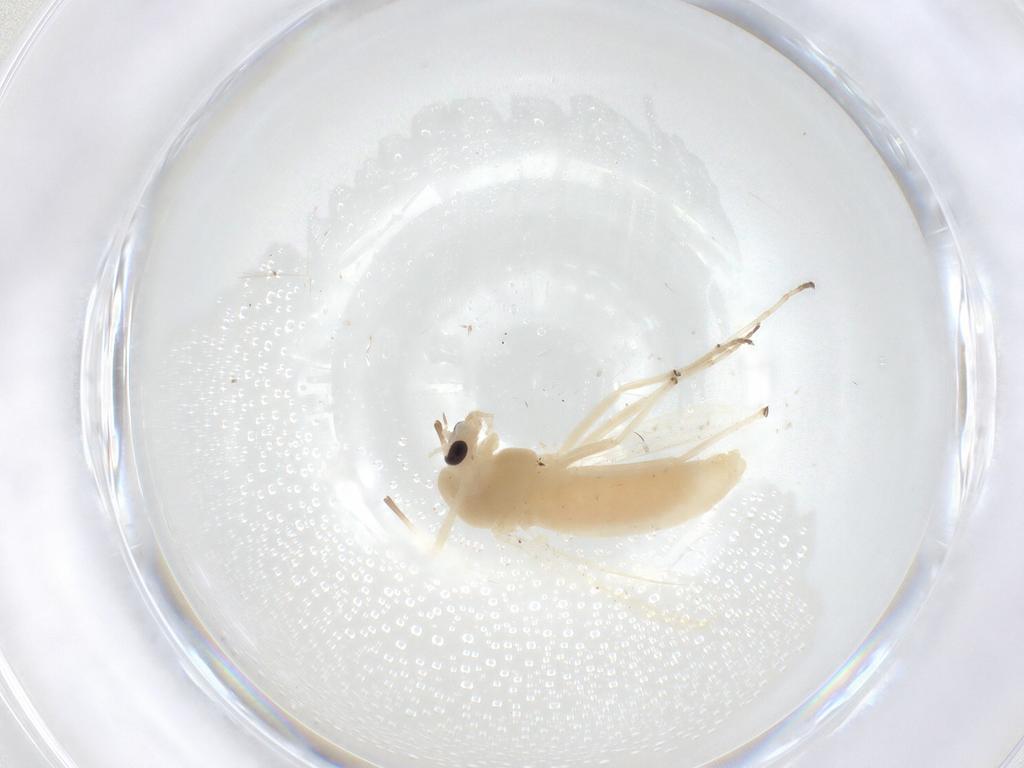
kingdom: Animalia
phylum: Arthropoda
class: Insecta
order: Diptera
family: Chironomidae
